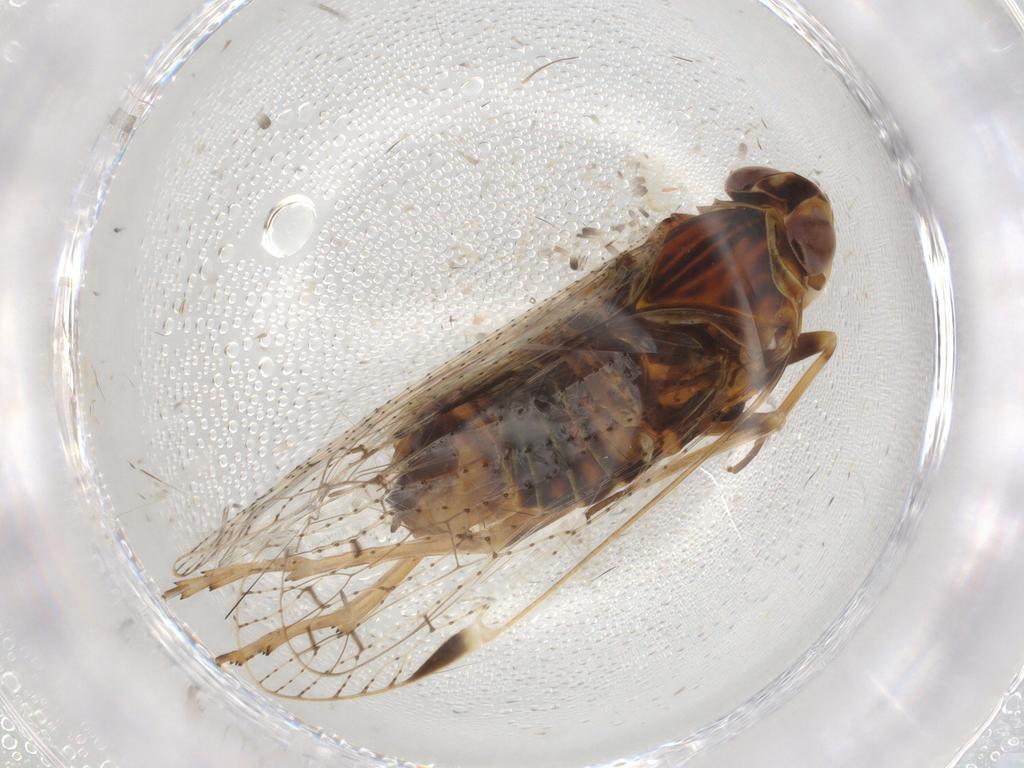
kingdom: Animalia
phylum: Arthropoda
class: Insecta
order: Hemiptera
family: Cixiidae
